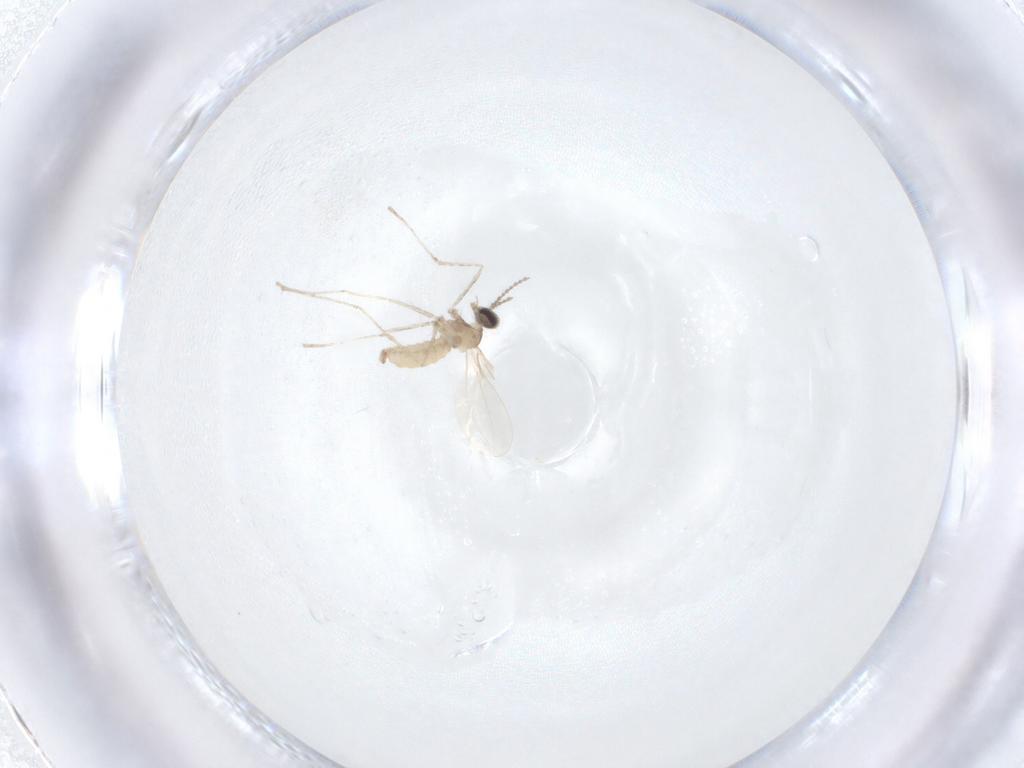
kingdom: Animalia
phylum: Arthropoda
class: Insecta
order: Diptera
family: Cecidomyiidae
